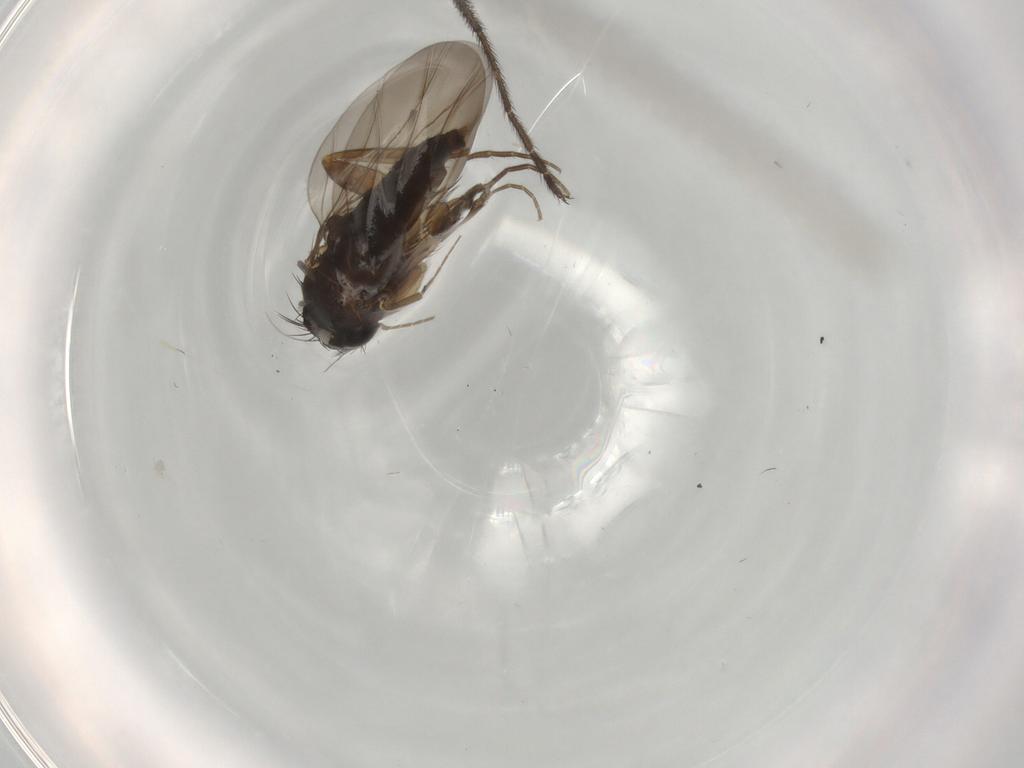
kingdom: Animalia
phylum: Arthropoda
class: Insecta
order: Diptera
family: Phoridae
